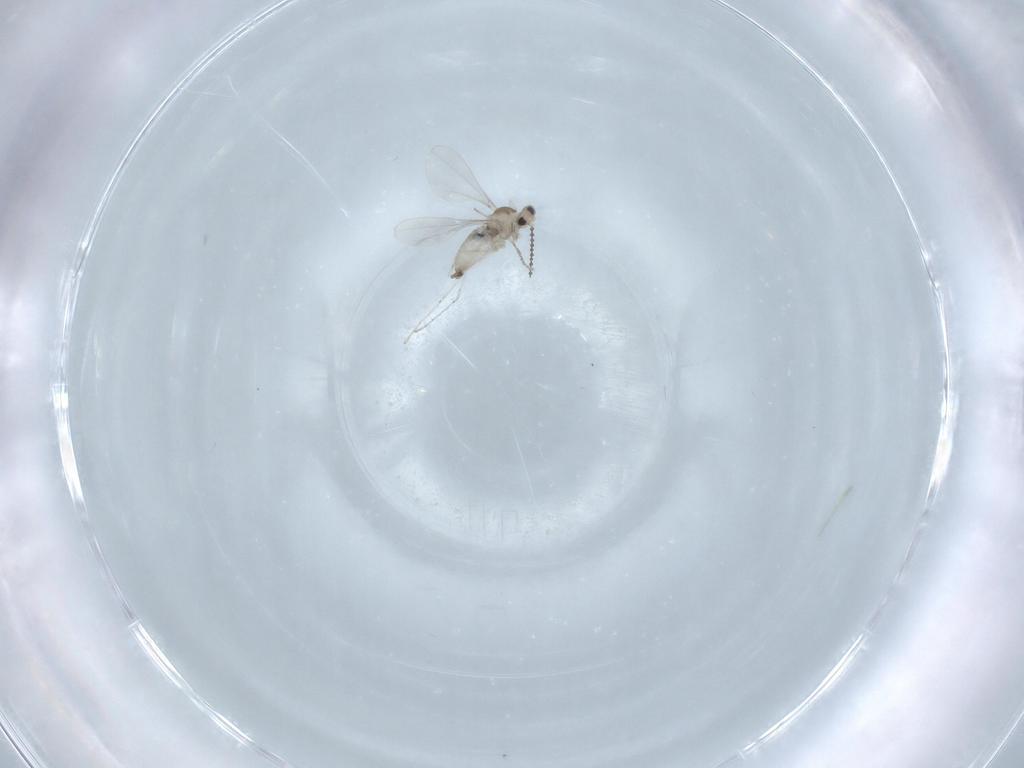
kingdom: Animalia
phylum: Arthropoda
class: Insecta
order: Diptera
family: Cecidomyiidae
